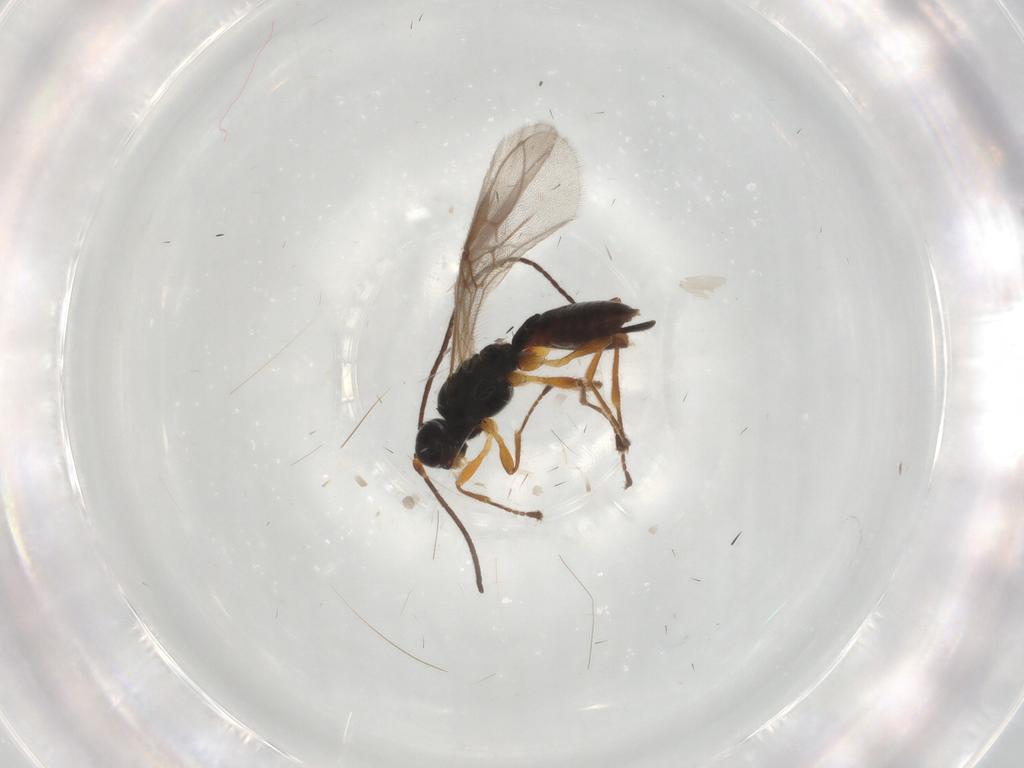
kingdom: Animalia
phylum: Arthropoda
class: Insecta
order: Hymenoptera
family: Braconidae
